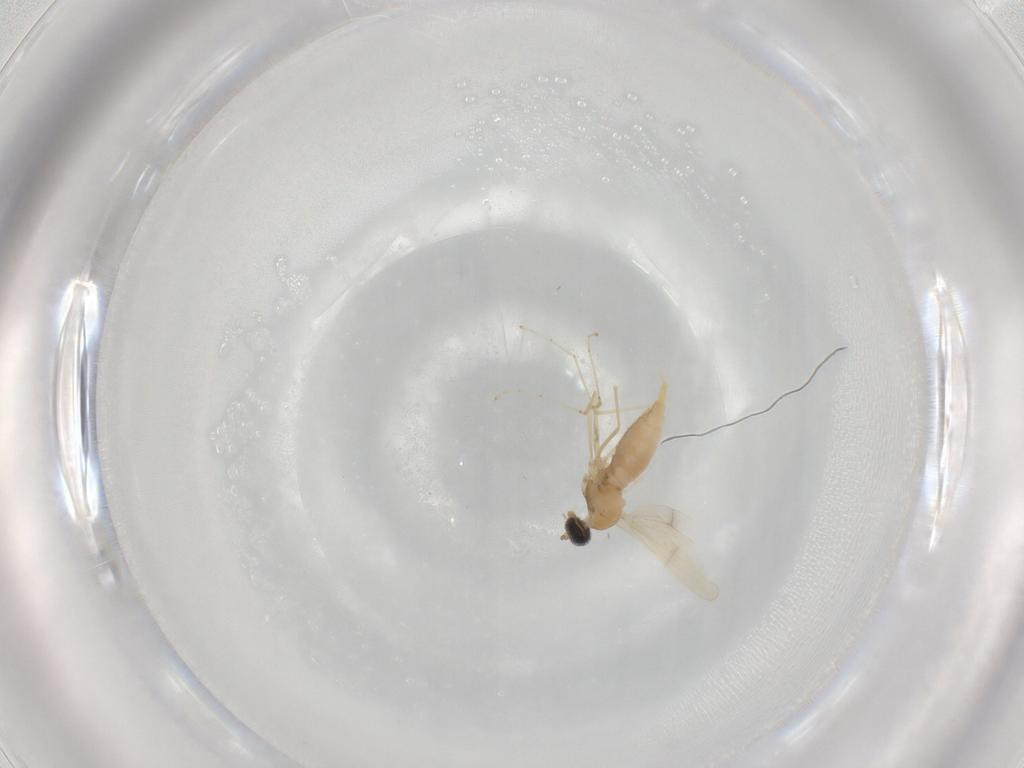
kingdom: Animalia
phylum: Arthropoda
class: Insecta
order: Diptera
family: Cecidomyiidae
